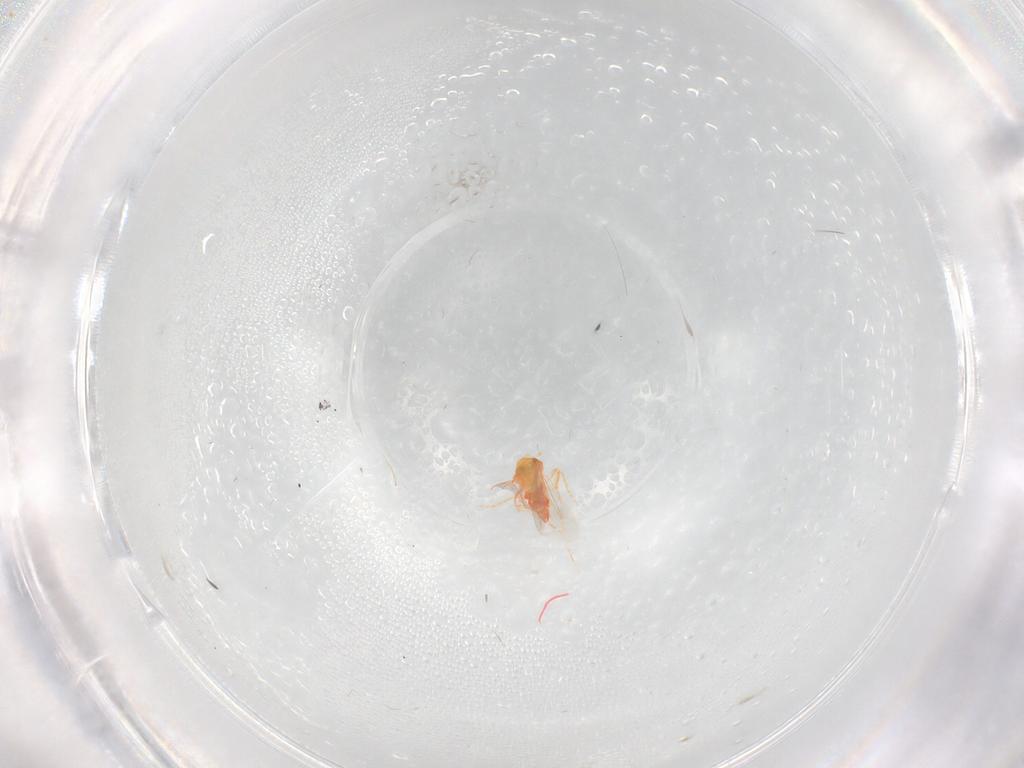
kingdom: Animalia
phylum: Arthropoda
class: Insecta
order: Hemiptera
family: Aleyrodidae
